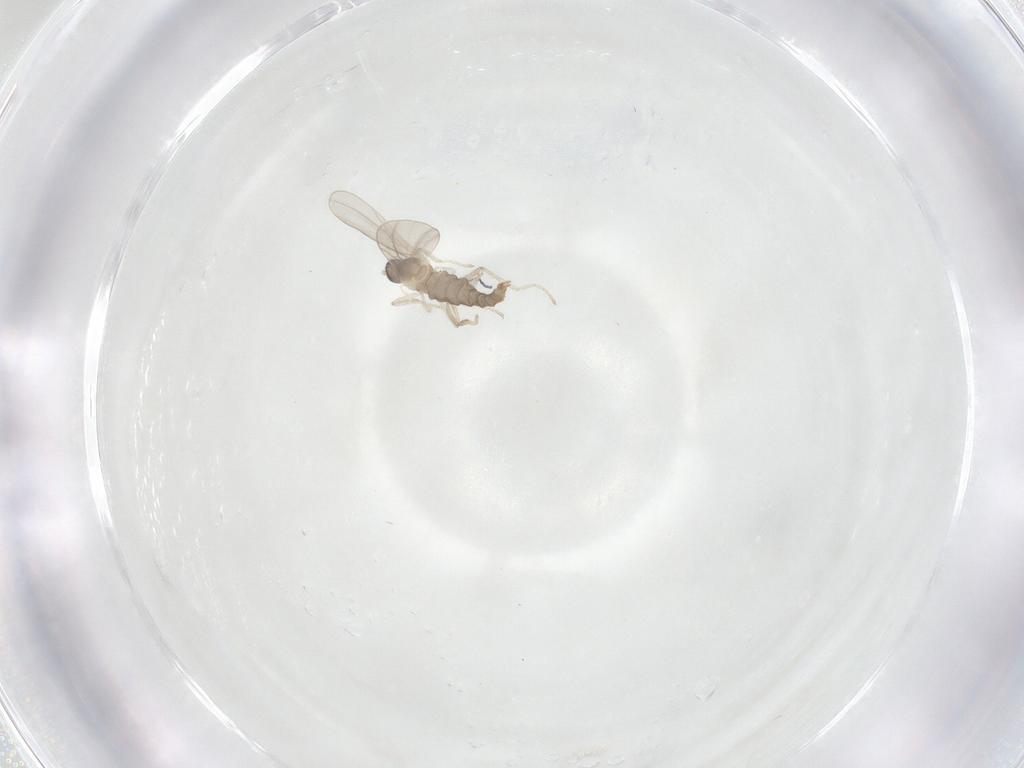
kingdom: Animalia
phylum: Arthropoda
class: Insecta
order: Diptera
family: Cecidomyiidae
